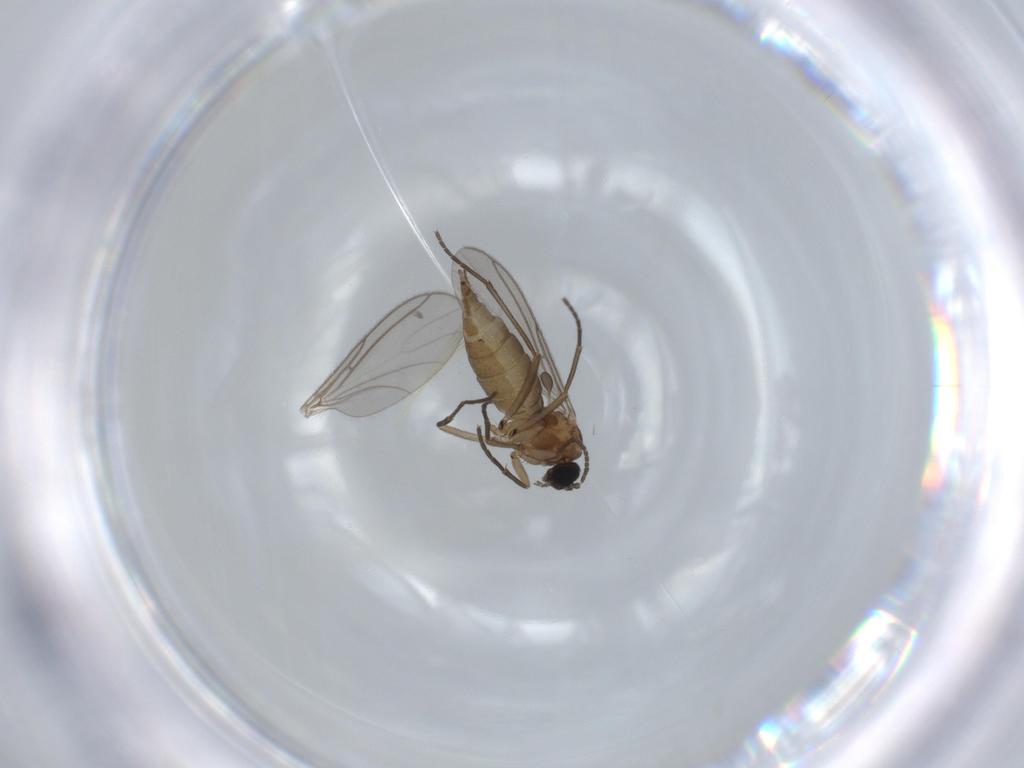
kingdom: Animalia
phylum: Arthropoda
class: Insecta
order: Diptera
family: Sciaridae
